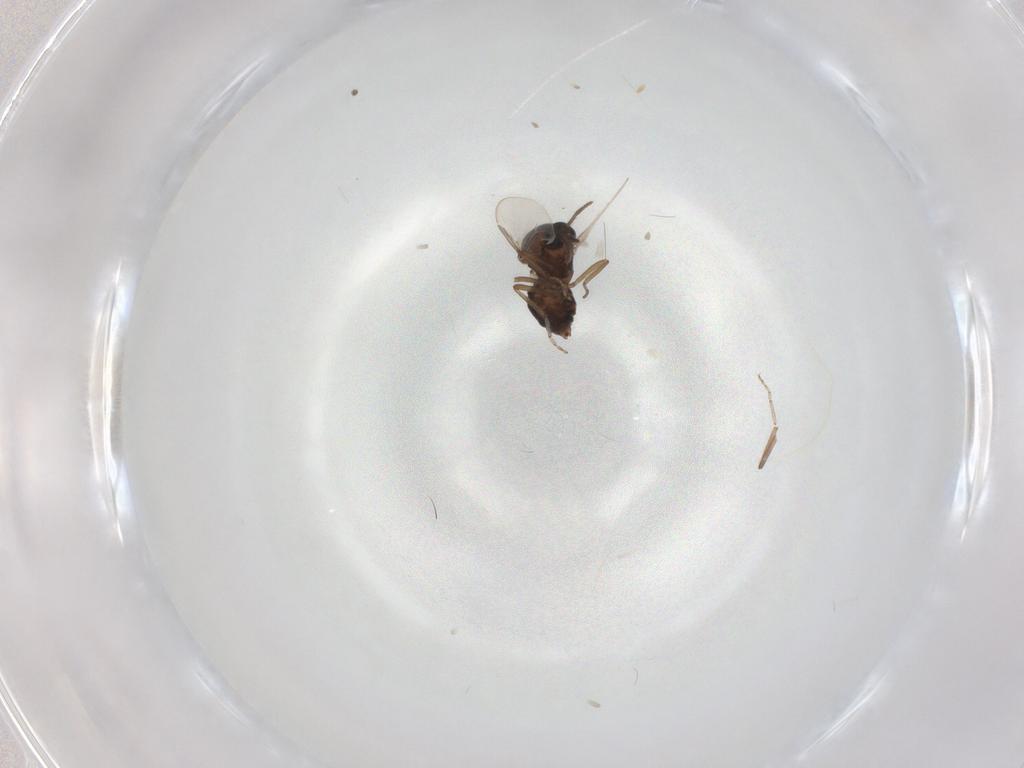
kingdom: Animalia
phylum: Arthropoda
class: Insecta
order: Diptera
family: Ceratopogonidae
